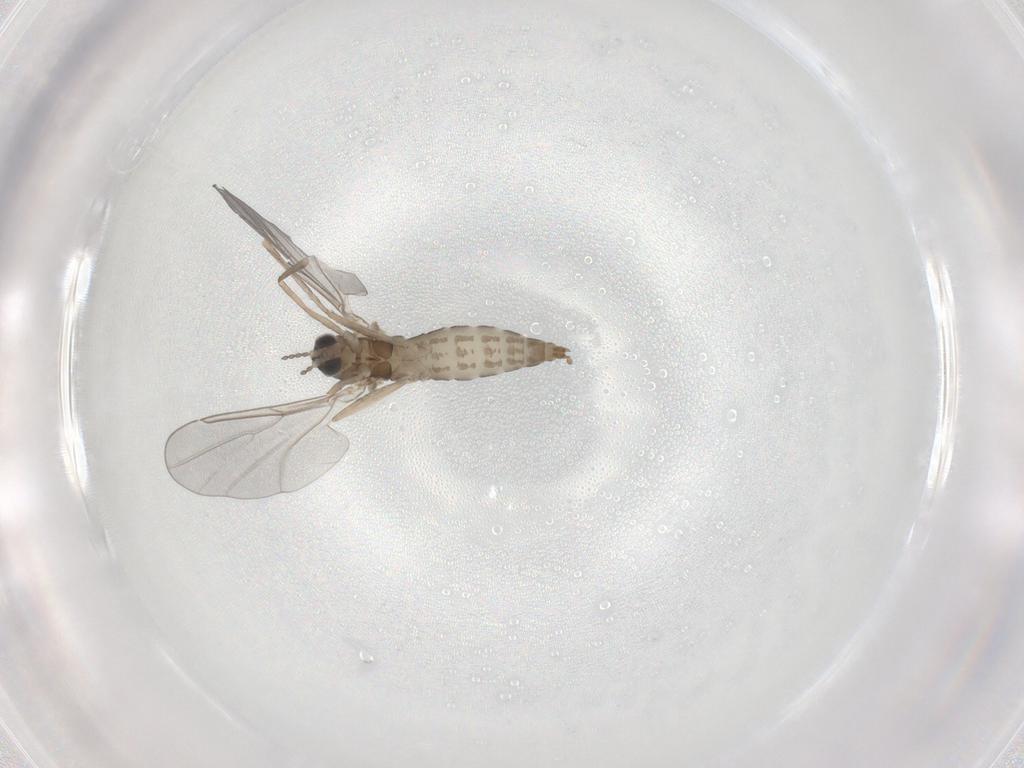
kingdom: Animalia
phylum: Arthropoda
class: Insecta
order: Diptera
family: Cecidomyiidae
